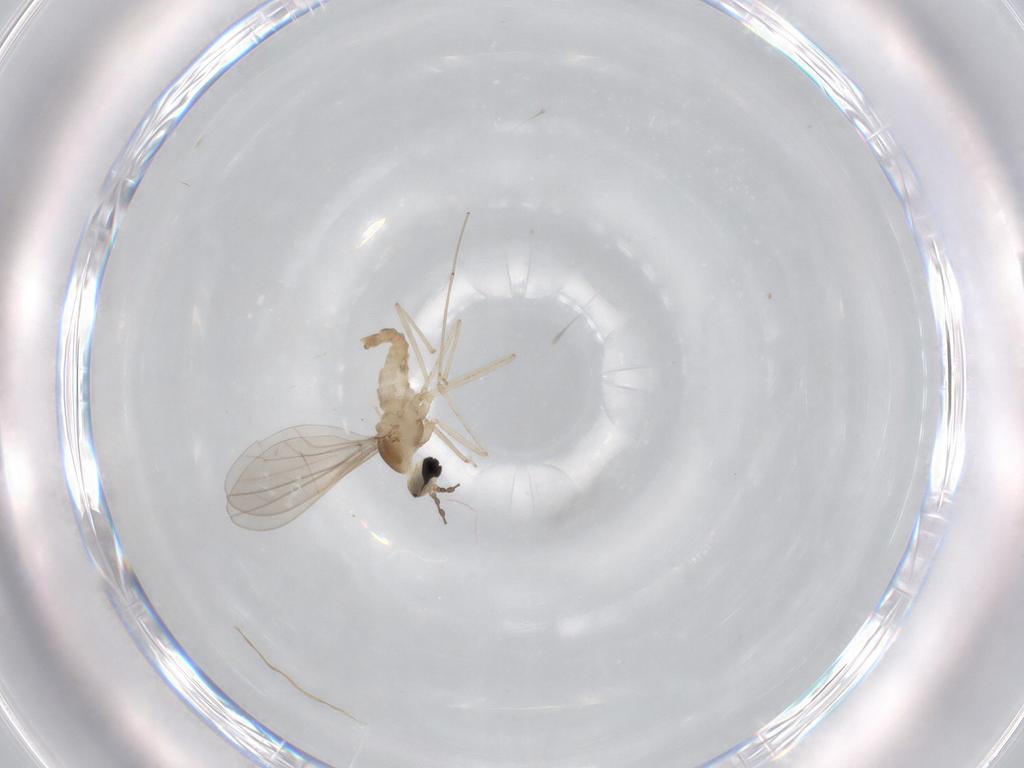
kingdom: Animalia
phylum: Arthropoda
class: Insecta
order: Diptera
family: Cecidomyiidae
